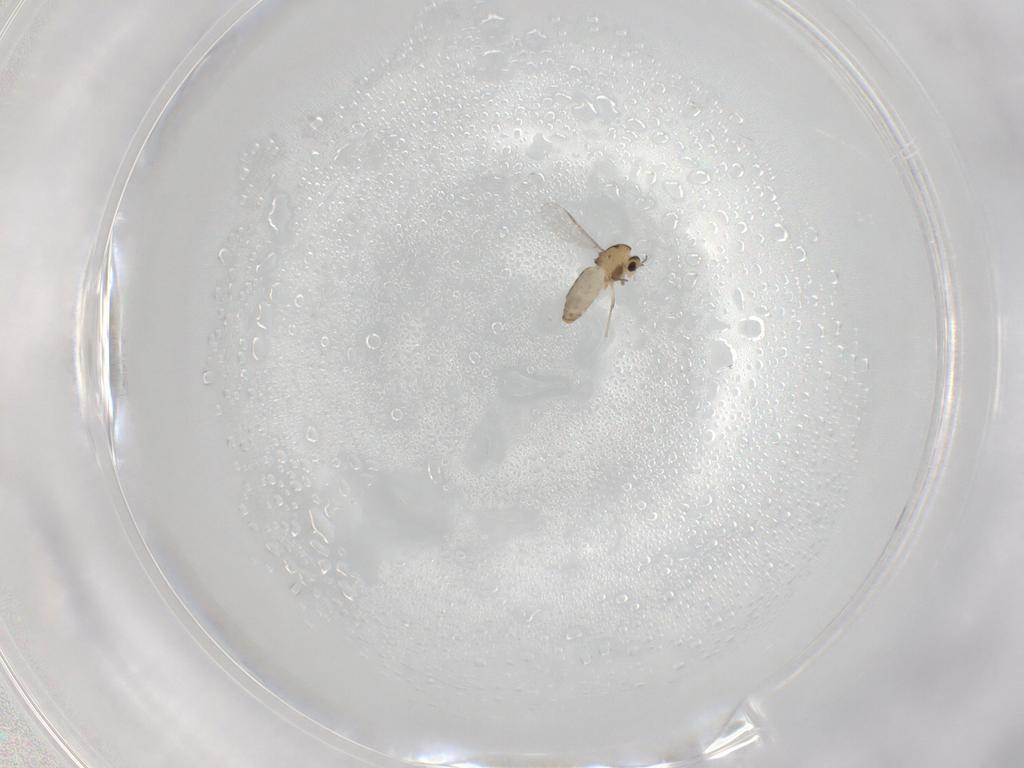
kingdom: Animalia
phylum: Arthropoda
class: Insecta
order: Diptera
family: Chironomidae
